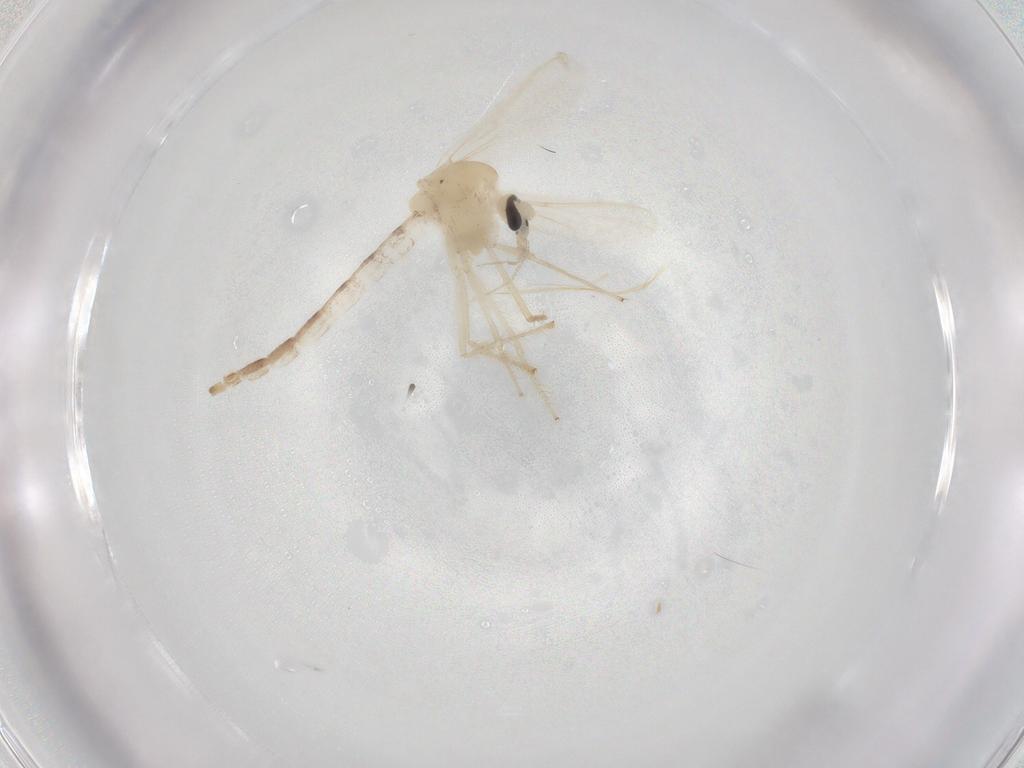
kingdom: Animalia
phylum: Arthropoda
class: Insecta
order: Diptera
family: Chironomidae
